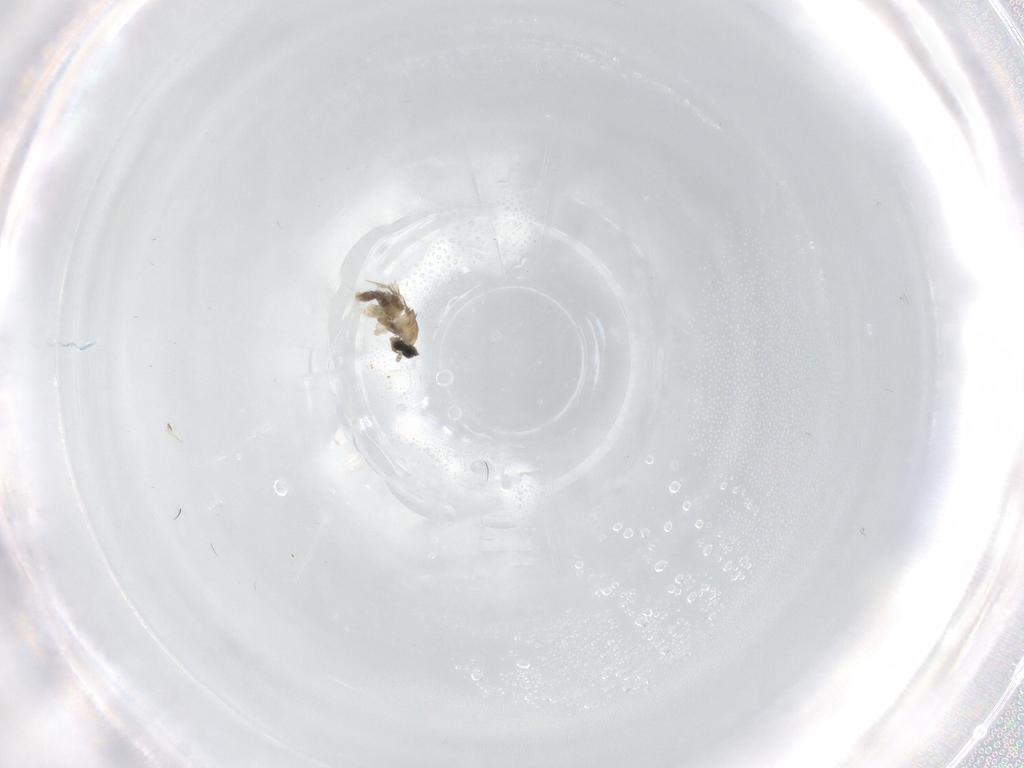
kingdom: Animalia
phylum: Arthropoda
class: Insecta
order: Diptera
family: Cecidomyiidae
